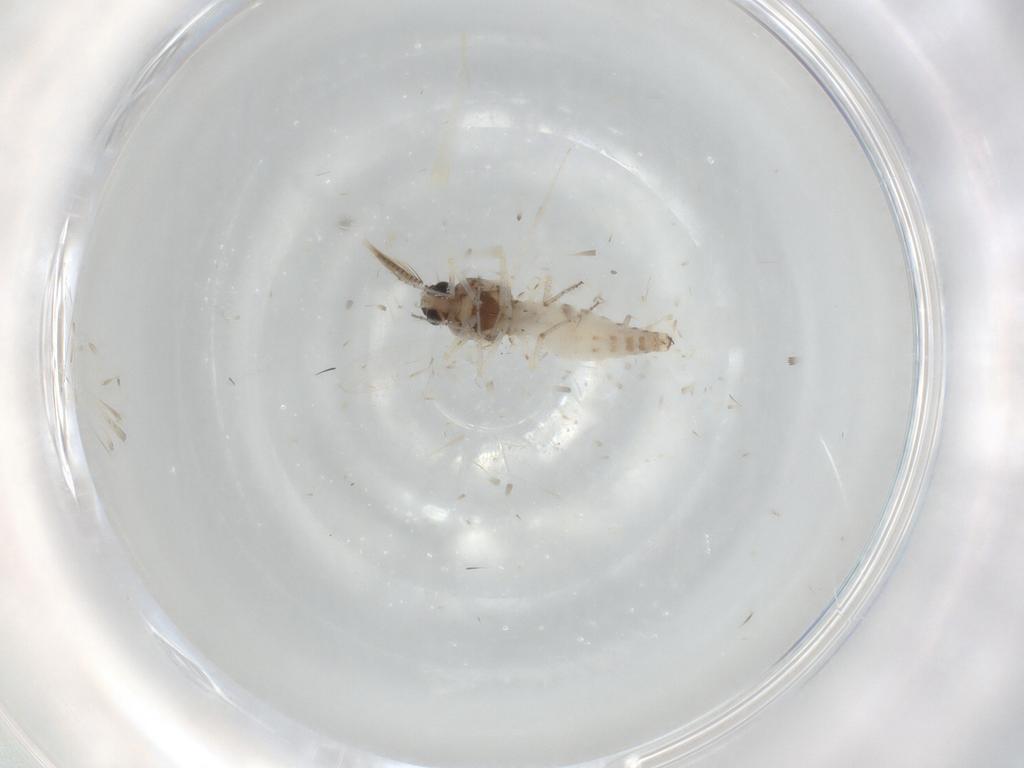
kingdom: Animalia
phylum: Arthropoda
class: Insecta
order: Diptera
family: Ceratopogonidae
